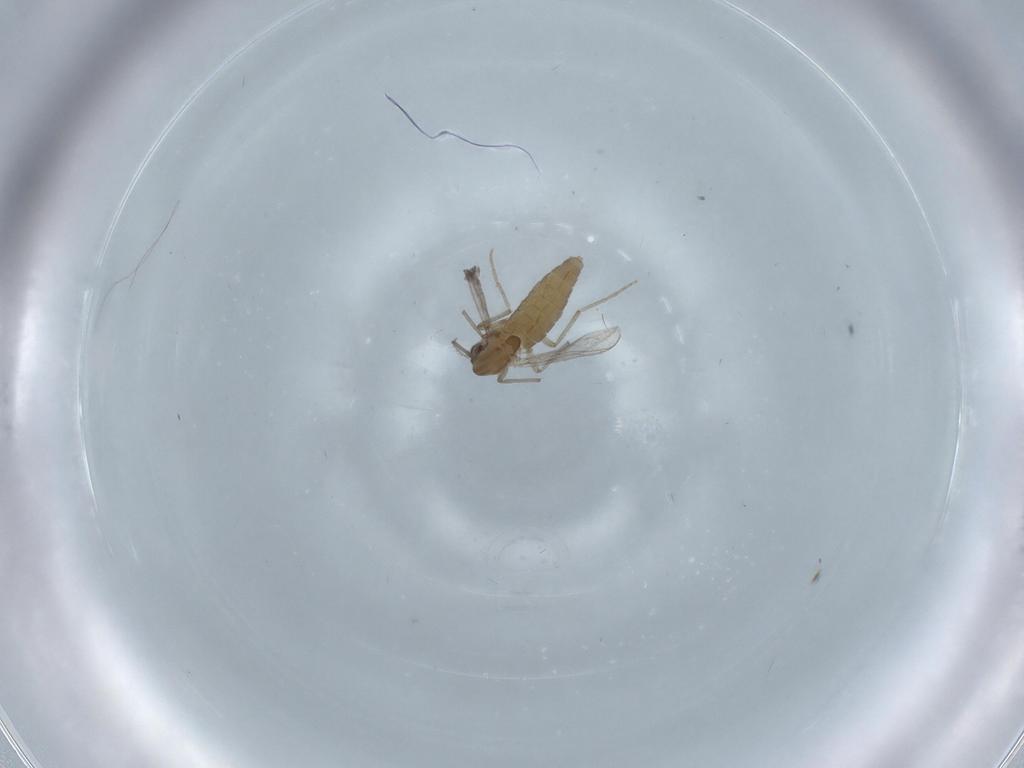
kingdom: Animalia
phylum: Arthropoda
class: Insecta
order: Diptera
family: Chironomidae
